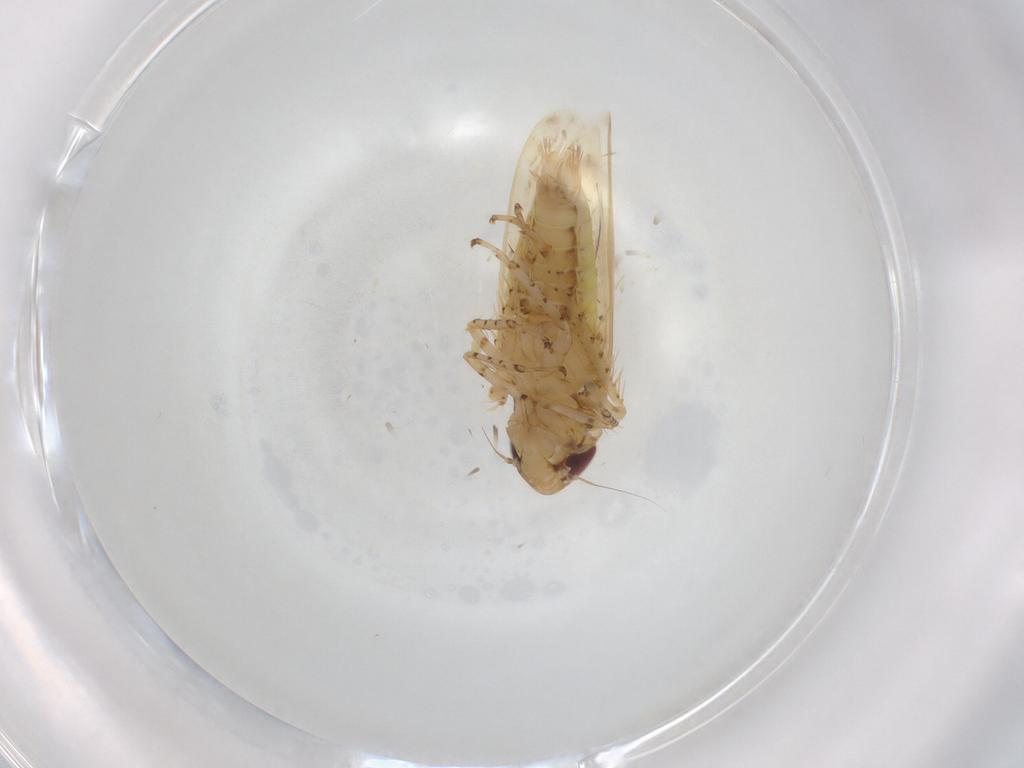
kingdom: Animalia
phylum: Arthropoda
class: Insecta
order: Hemiptera
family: Cicadellidae
